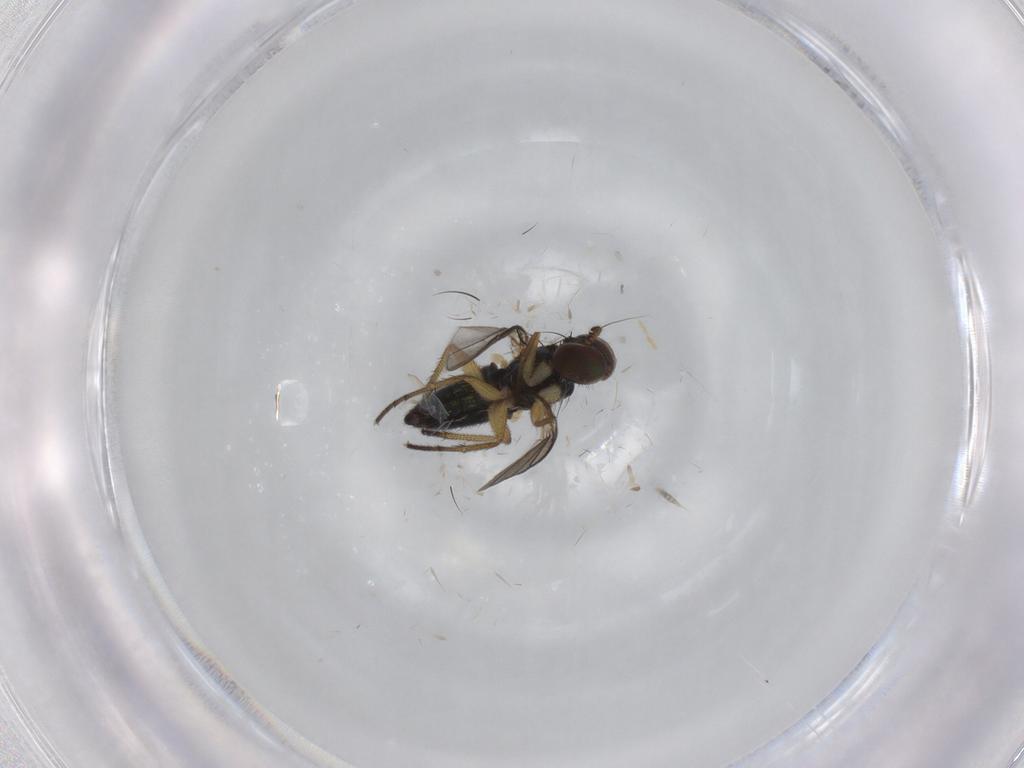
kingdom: Animalia
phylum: Arthropoda
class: Insecta
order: Diptera
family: Dolichopodidae
